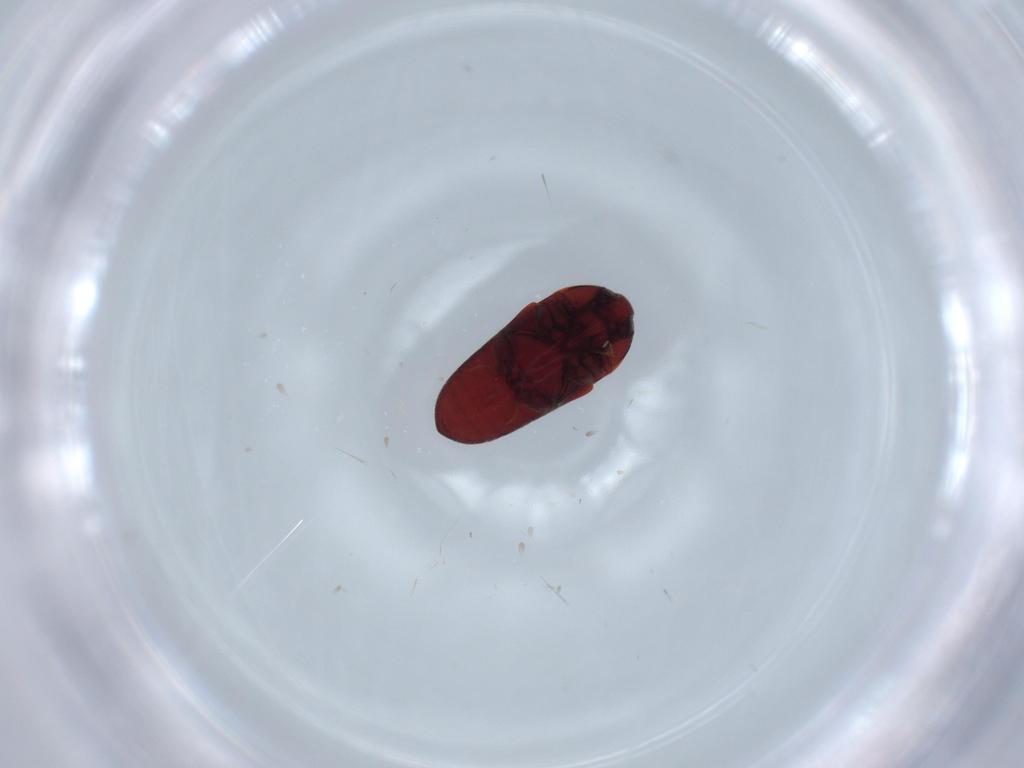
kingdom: Animalia
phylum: Arthropoda
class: Insecta
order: Coleoptera
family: Throscidae
